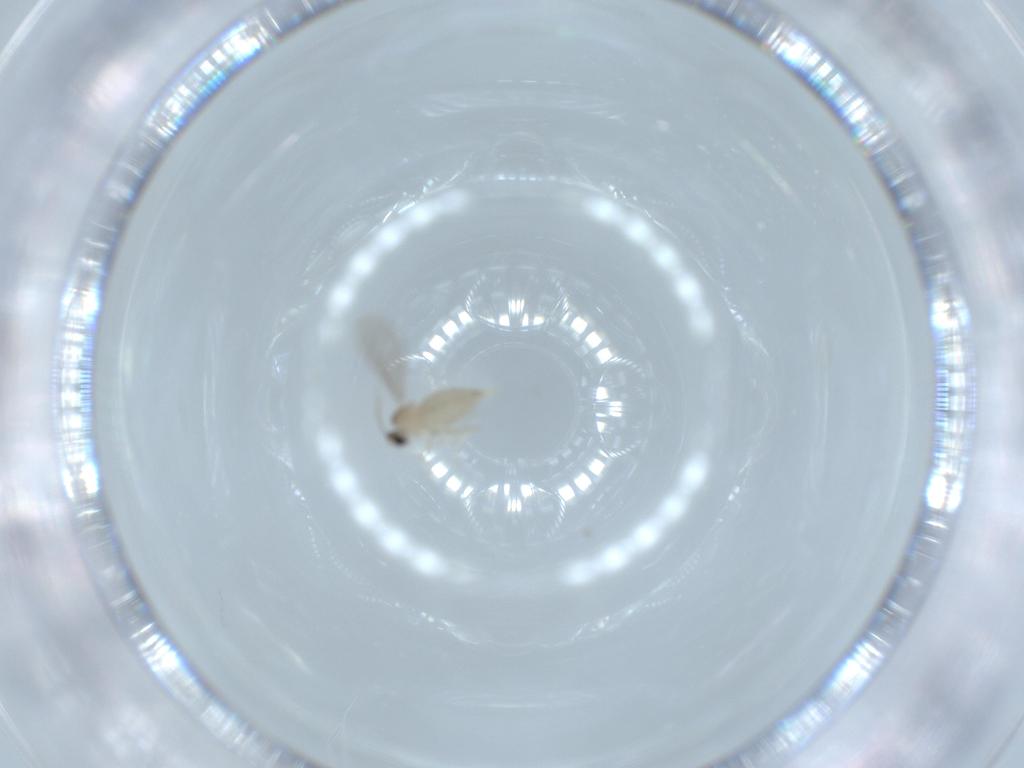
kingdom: Animalia
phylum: Arthropoda
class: Insecta
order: Diptera
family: Cecidomyiidae
